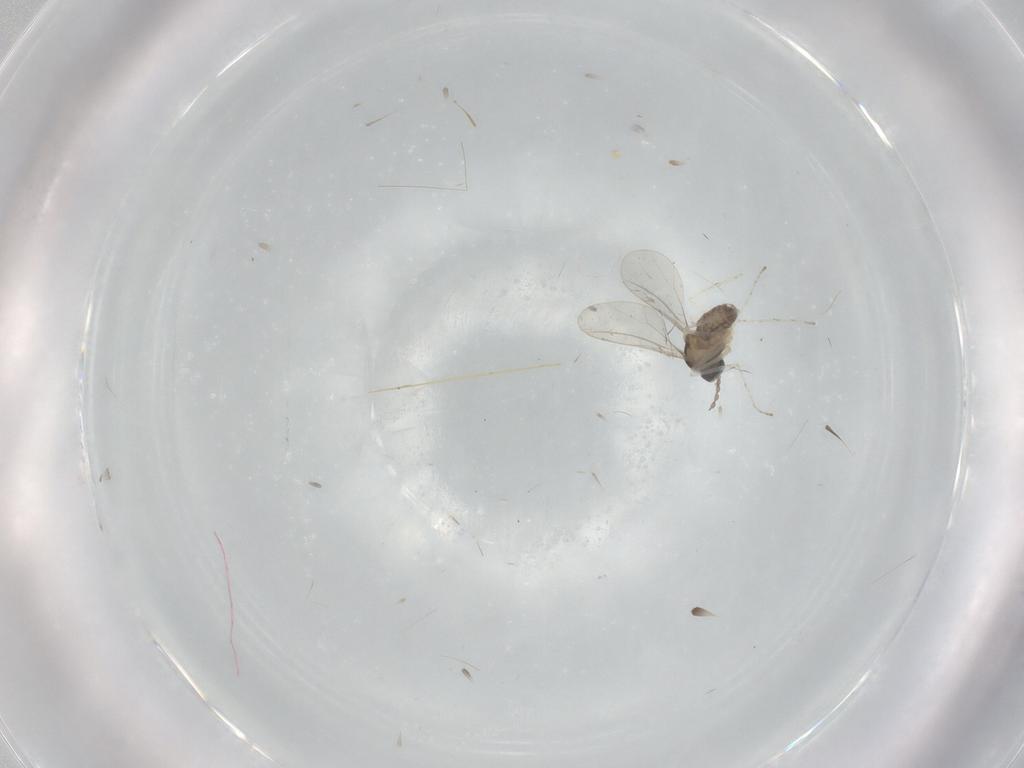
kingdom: Animalia
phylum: Arthropoda
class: Insecta
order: Diptera
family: Cecidomyiidae
